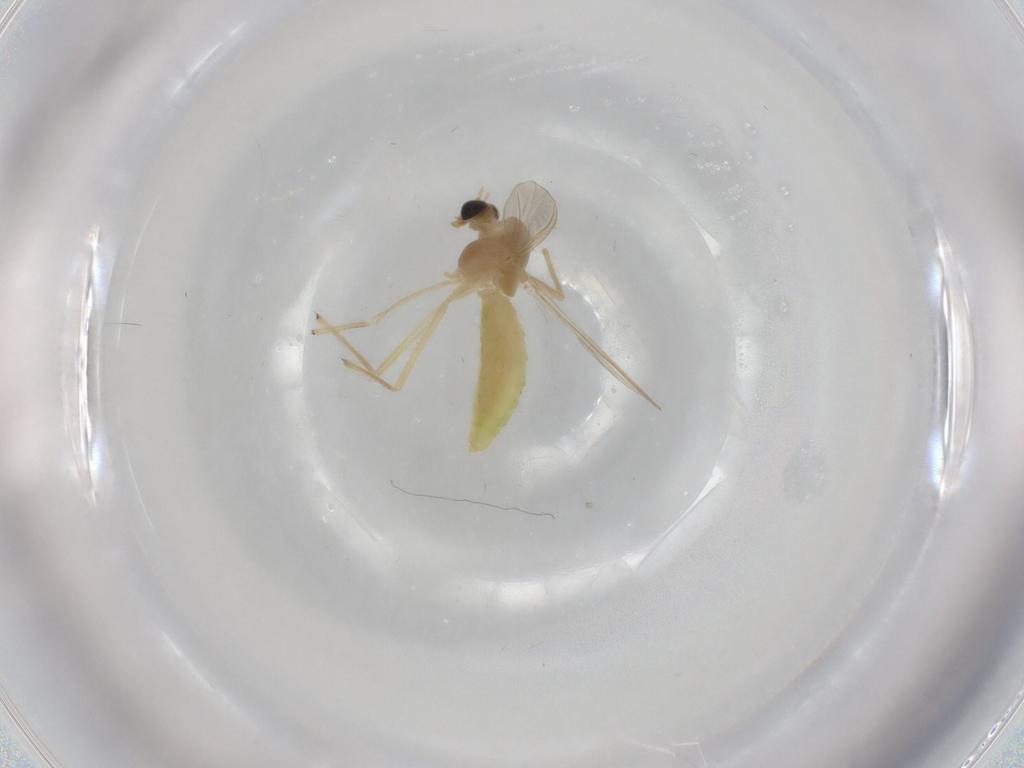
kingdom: Animalia
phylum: Arthropoda
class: Insecta
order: Diptera
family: Chironomidae
